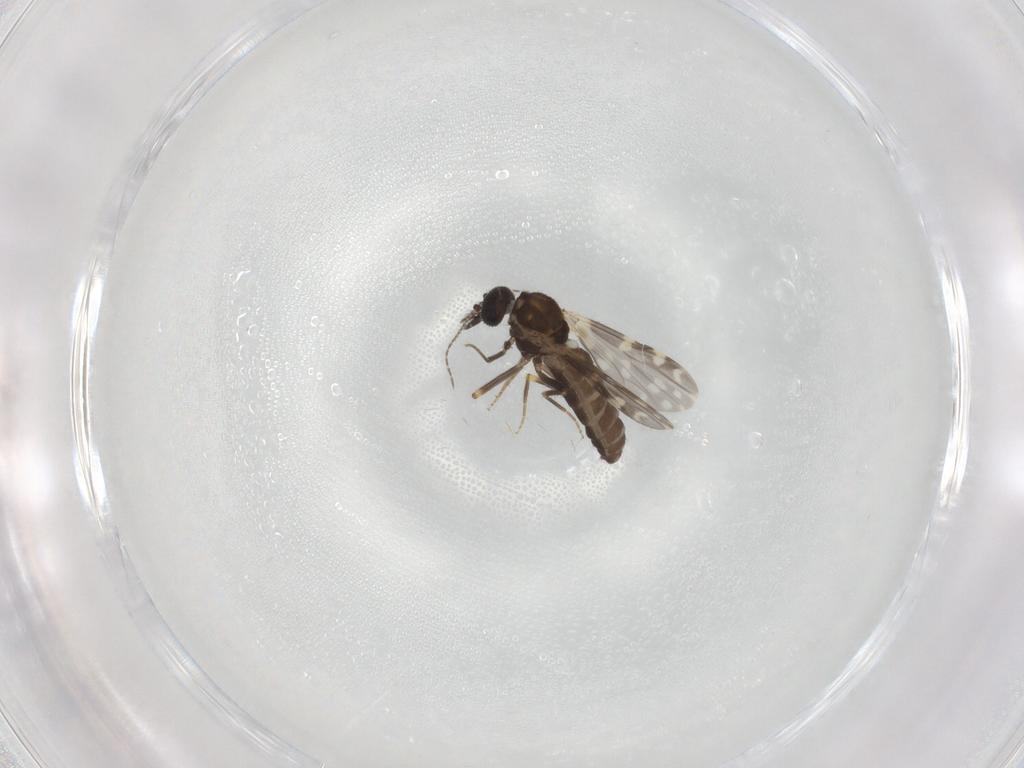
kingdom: Animalia
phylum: Arthropoda
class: Insecta
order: Diptera
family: Ceratopogonidae
